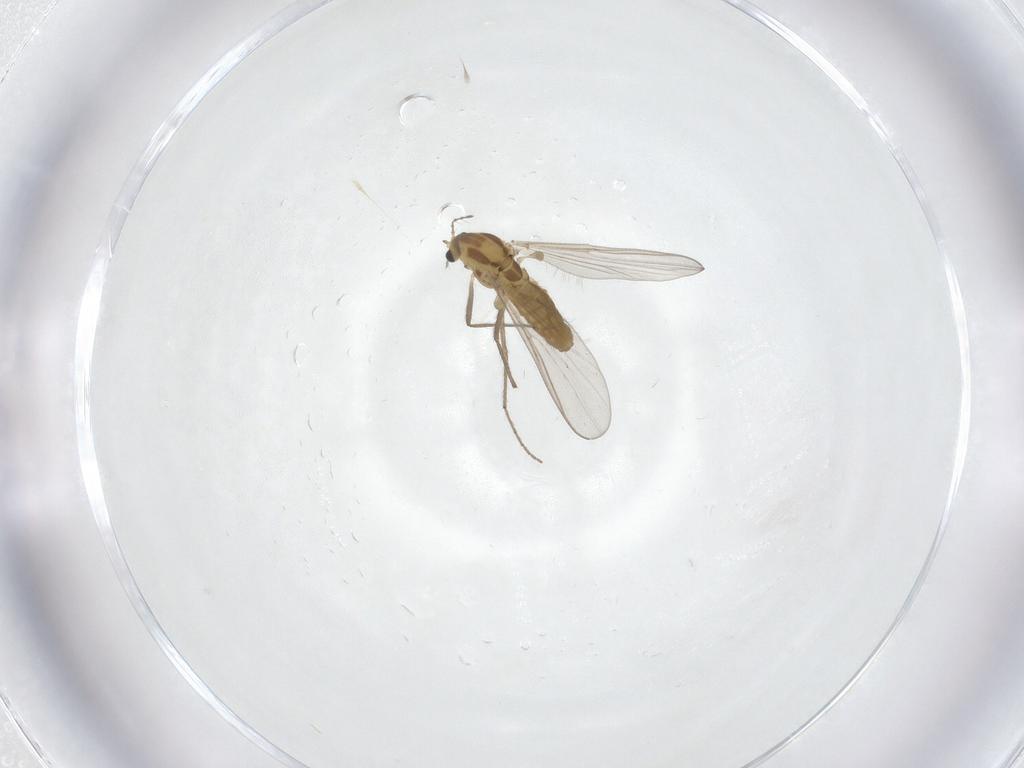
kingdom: Animalia
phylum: Arthropoda
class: Insecta
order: Diptera
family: Chironomidae
